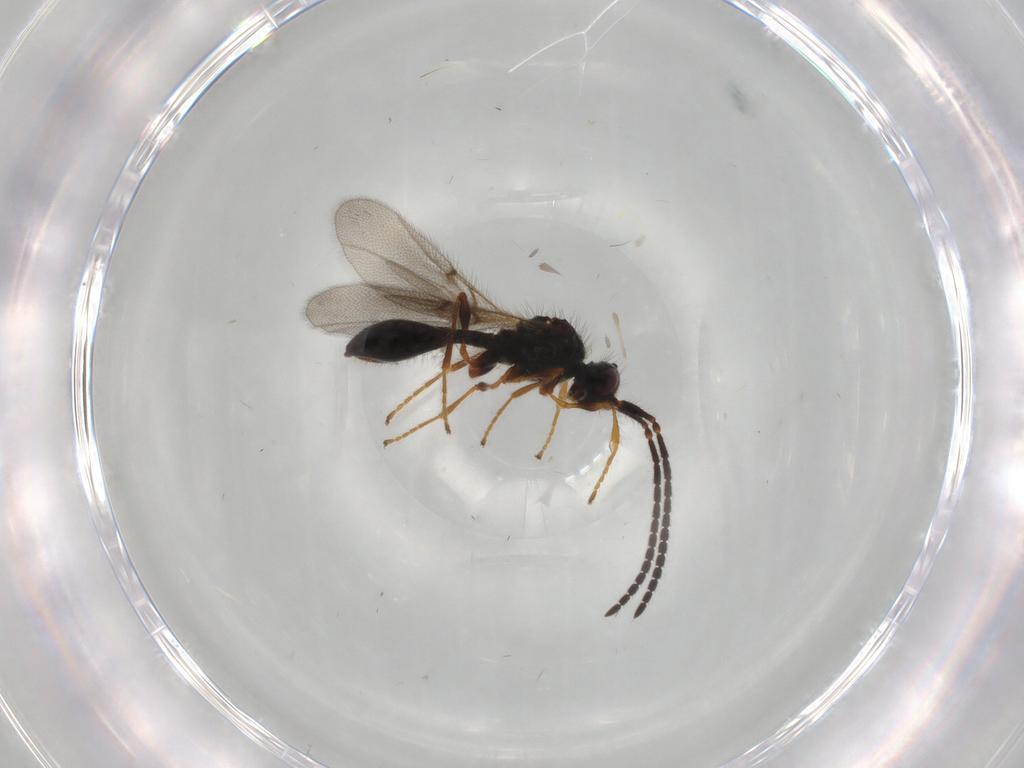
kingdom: Animalia
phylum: Arthropoda
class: Insecta
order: Hymenoptera
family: Diapriidae
